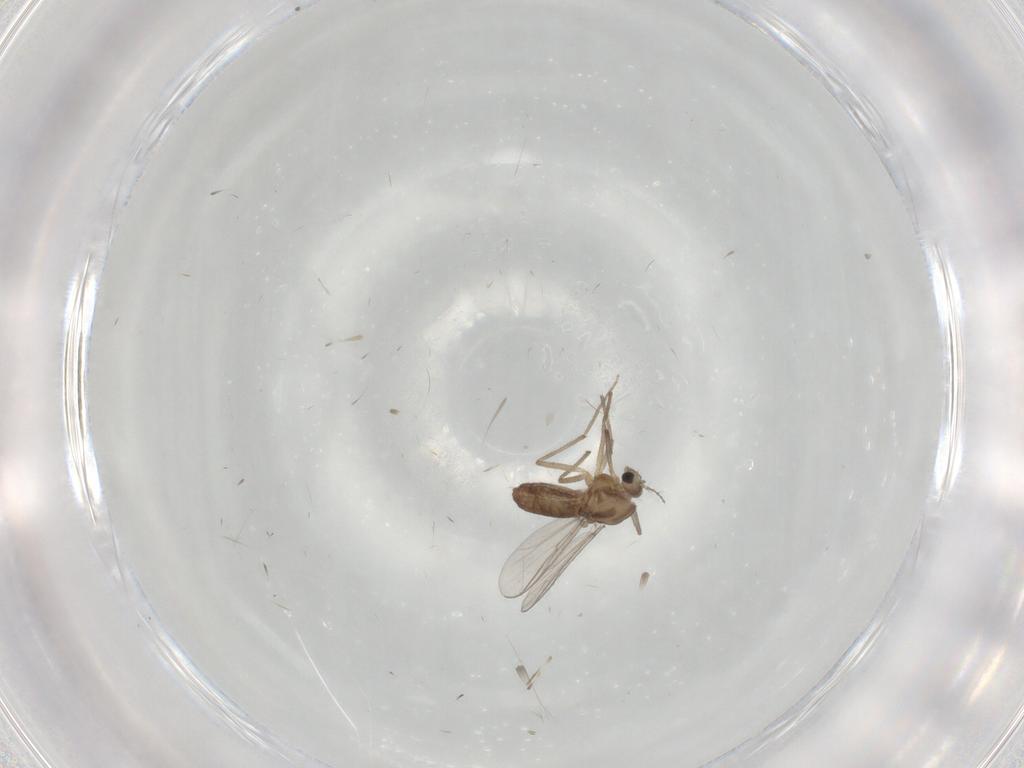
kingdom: Animalia
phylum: Arthropoda
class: Insecta
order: Diptera
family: Chironomidae
